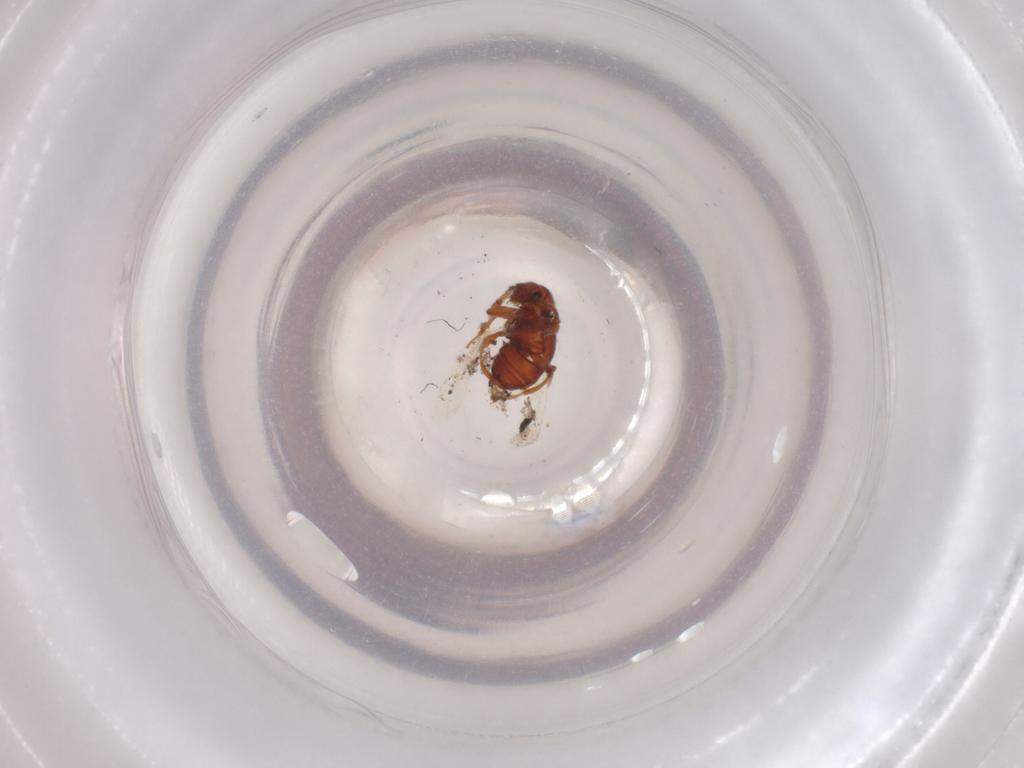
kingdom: Animalia
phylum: Arthropoda
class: Insecta
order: Coleoptera
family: Staphylinidae
